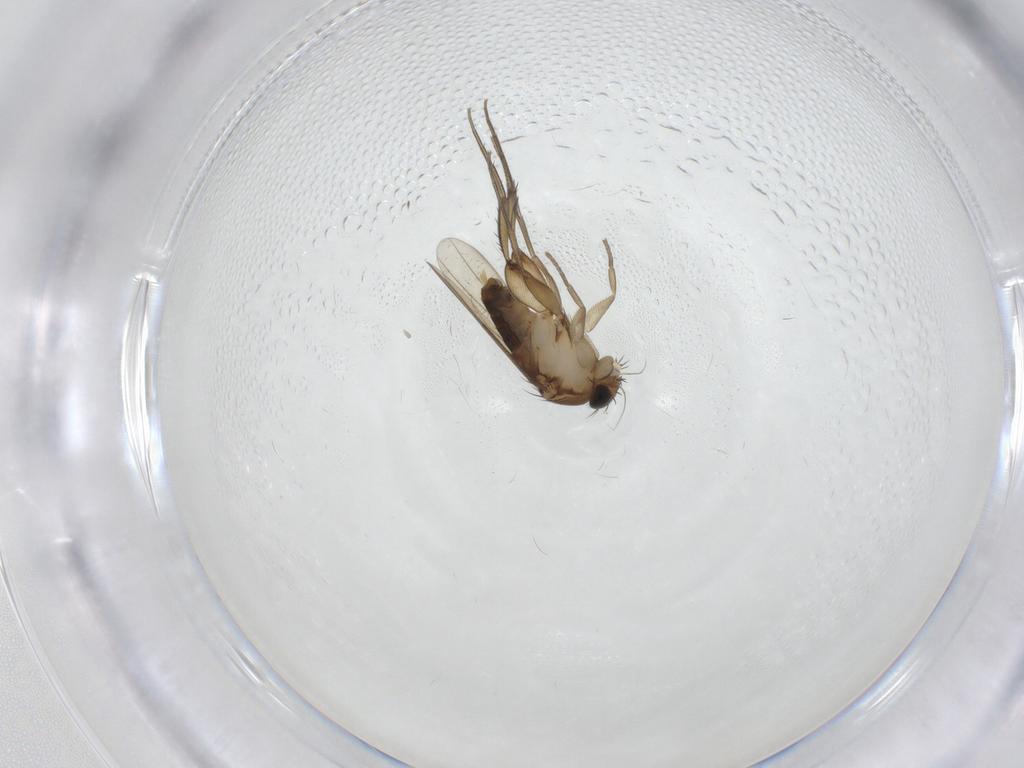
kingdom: Animalia
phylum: Arthropoda
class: Insecta
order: Diptera
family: Phoridae
